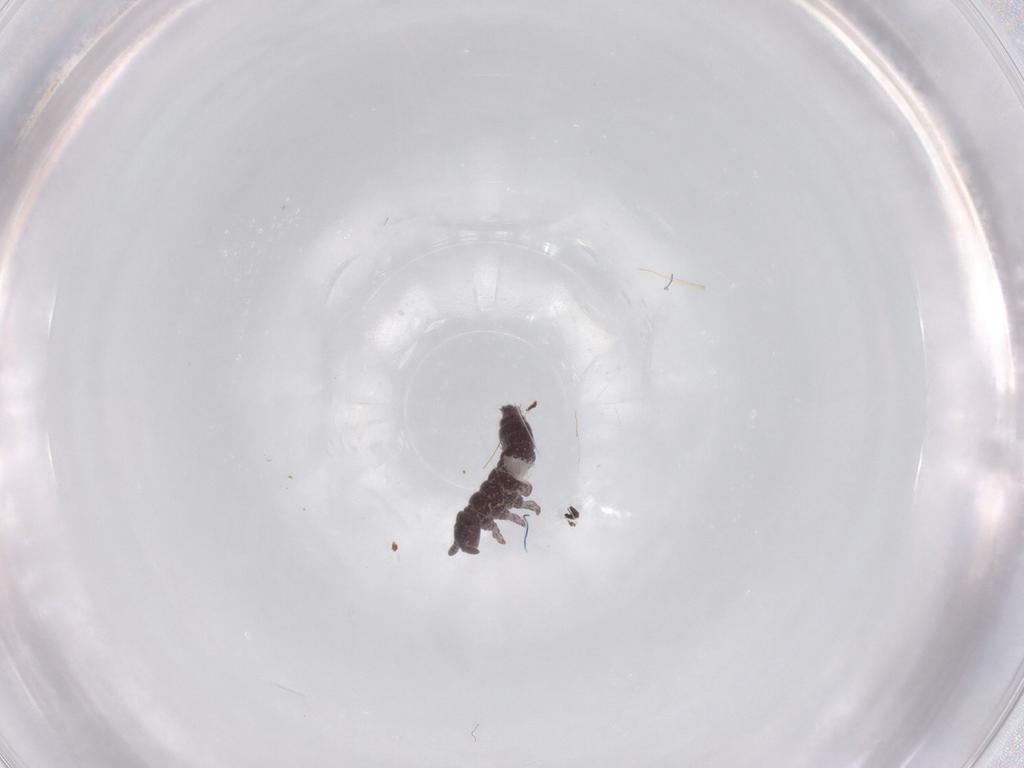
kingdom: Animalia
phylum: Arthropoda
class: Collembola
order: Poduromorpha
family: Hypogastruridae
